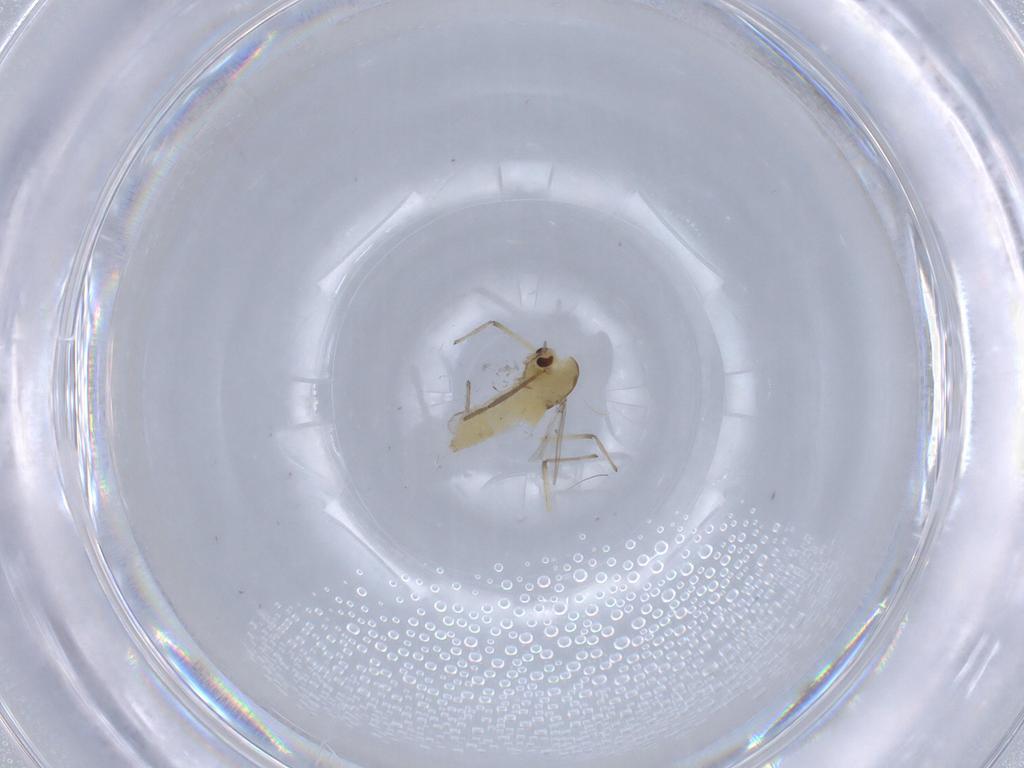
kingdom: Animalia
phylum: Arthropoda
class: Insecta
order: Diptera
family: Chironomidae
